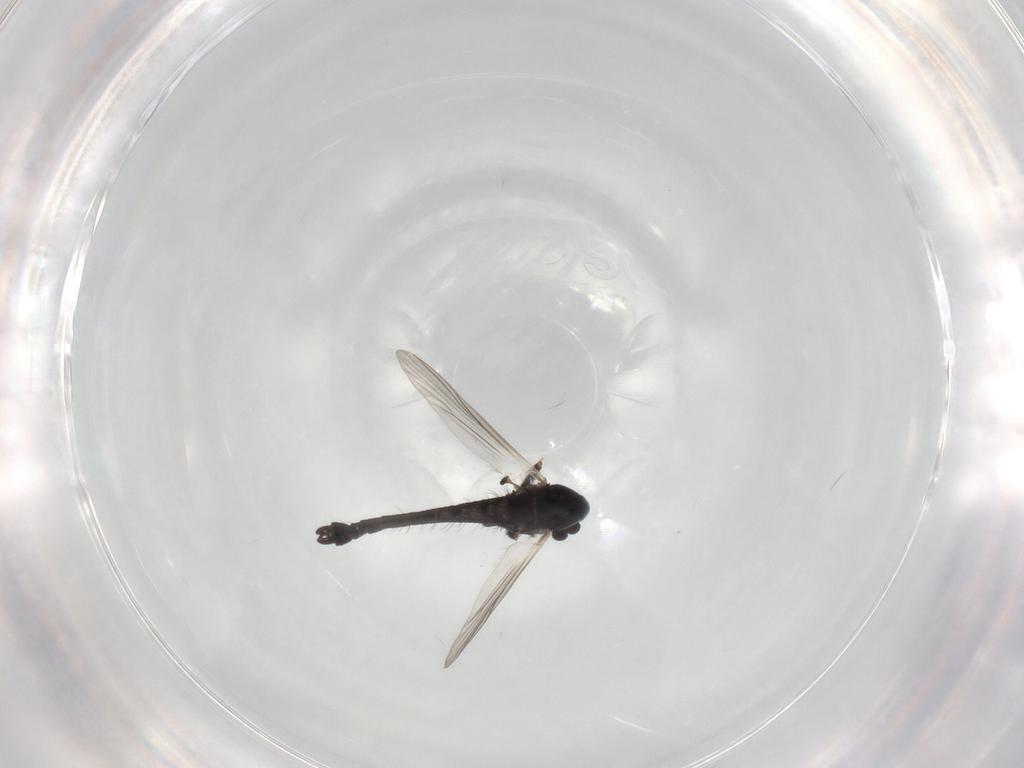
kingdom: Animalia
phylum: Arthropoda
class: Insecta
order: Diptera
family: Chironomidae
